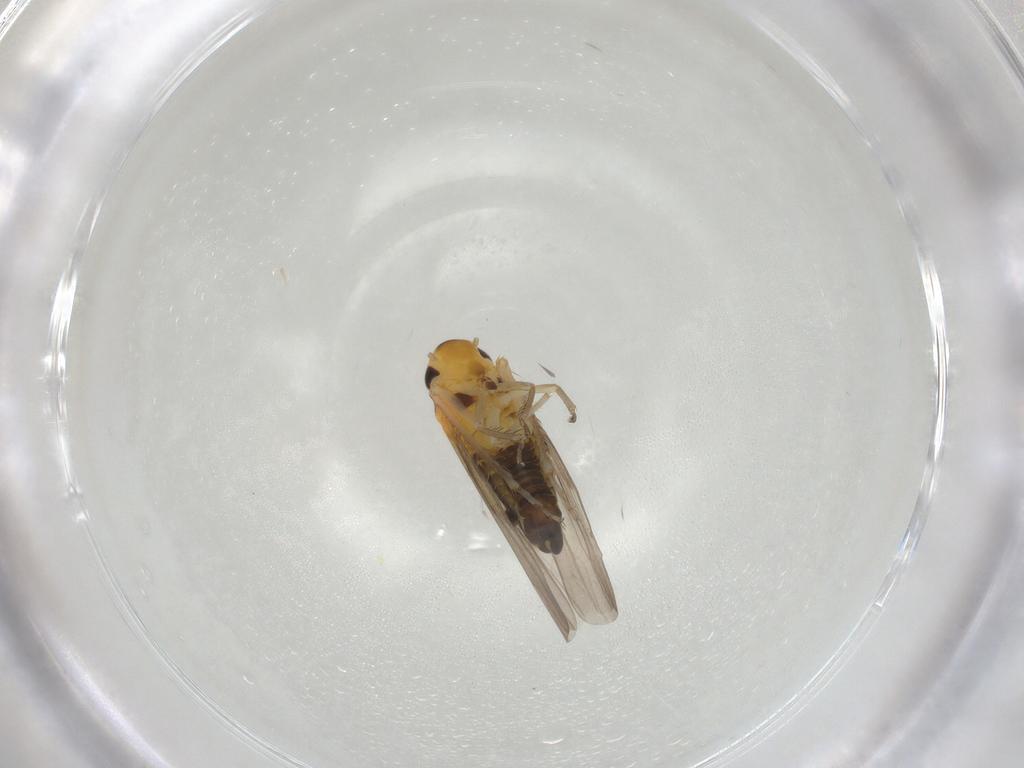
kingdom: Animalia
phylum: Arthropoda
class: Insecta
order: Hemiptera
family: Cicadellidae
